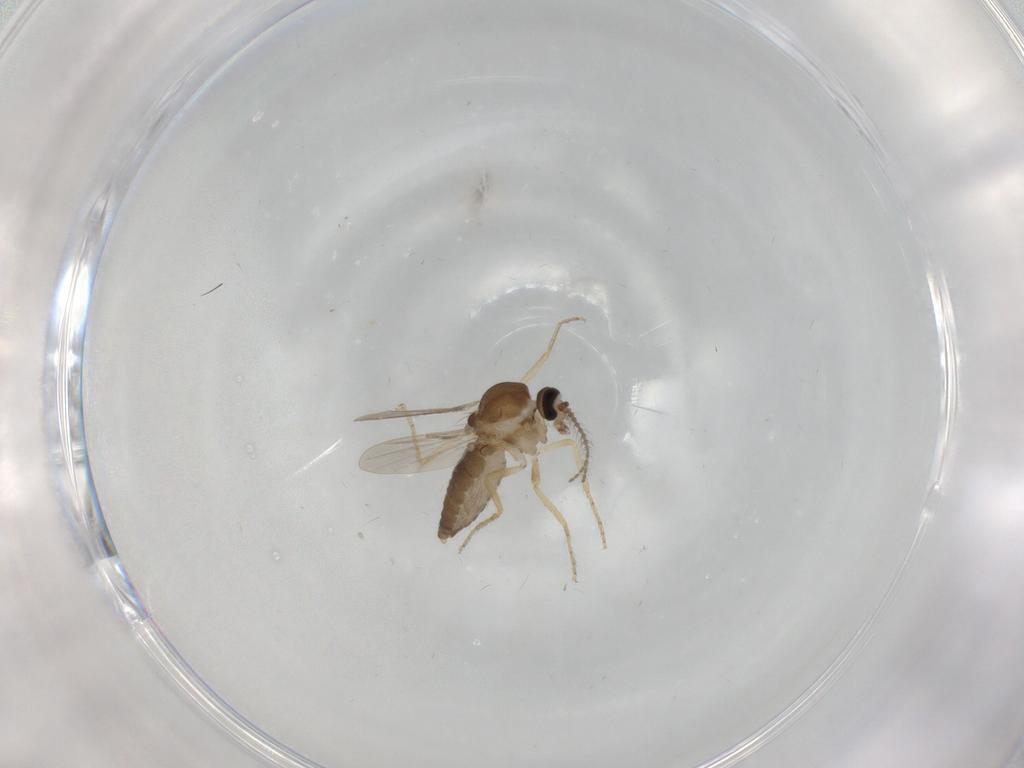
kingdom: Animalia
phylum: Arthropoda
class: Insecta
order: Diptera
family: Ceratopogonidae
